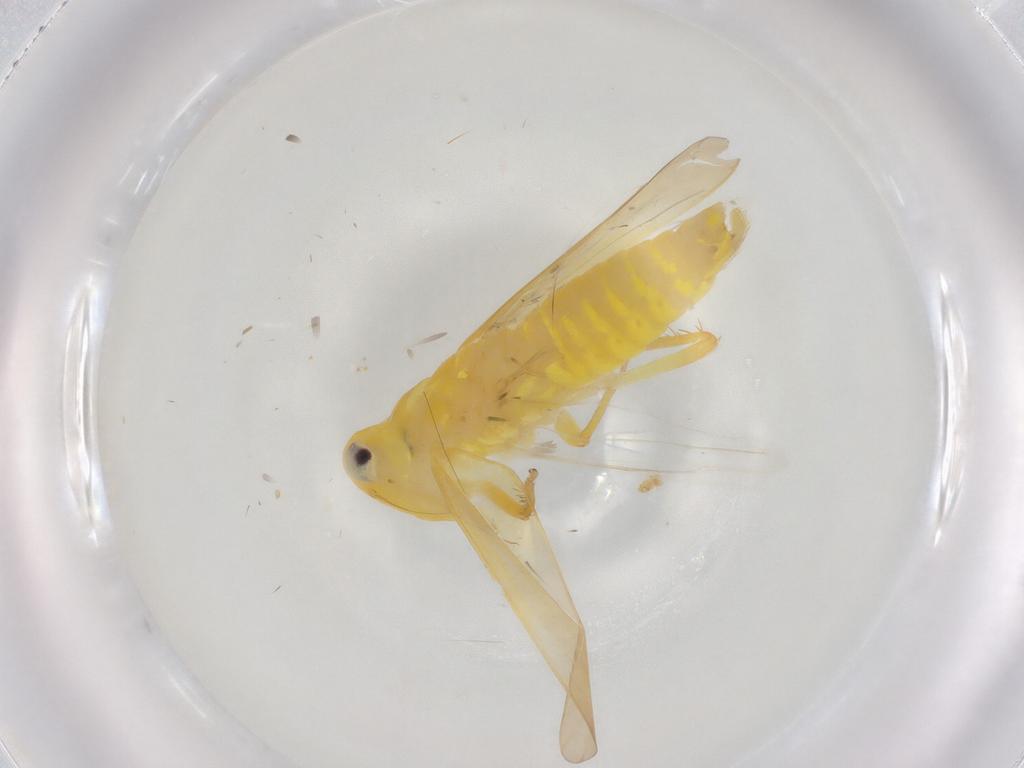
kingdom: Animalia
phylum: Arthropoda
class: Insecta
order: Hemiptera
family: Cicadellidae
